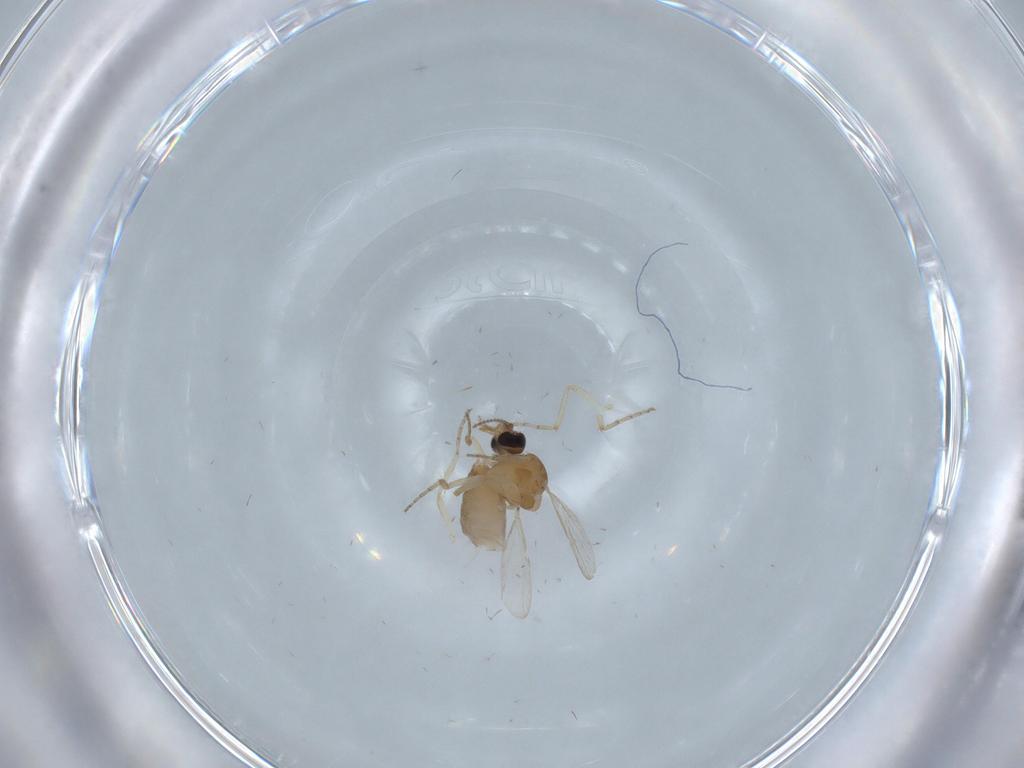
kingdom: Animalia
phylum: Arthropoda
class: Insecta
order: Diptera
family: Ceratopogonidae
